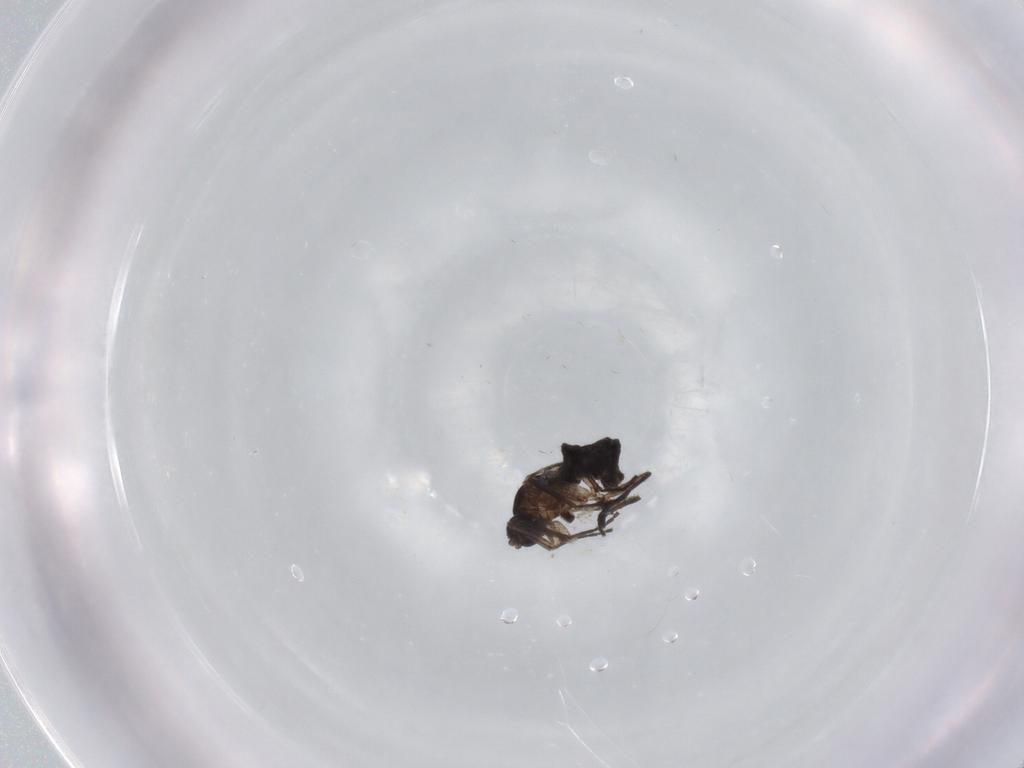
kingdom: Animalia
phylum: Arthropoda
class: Insecta
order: Diptera
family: Sciaridae
